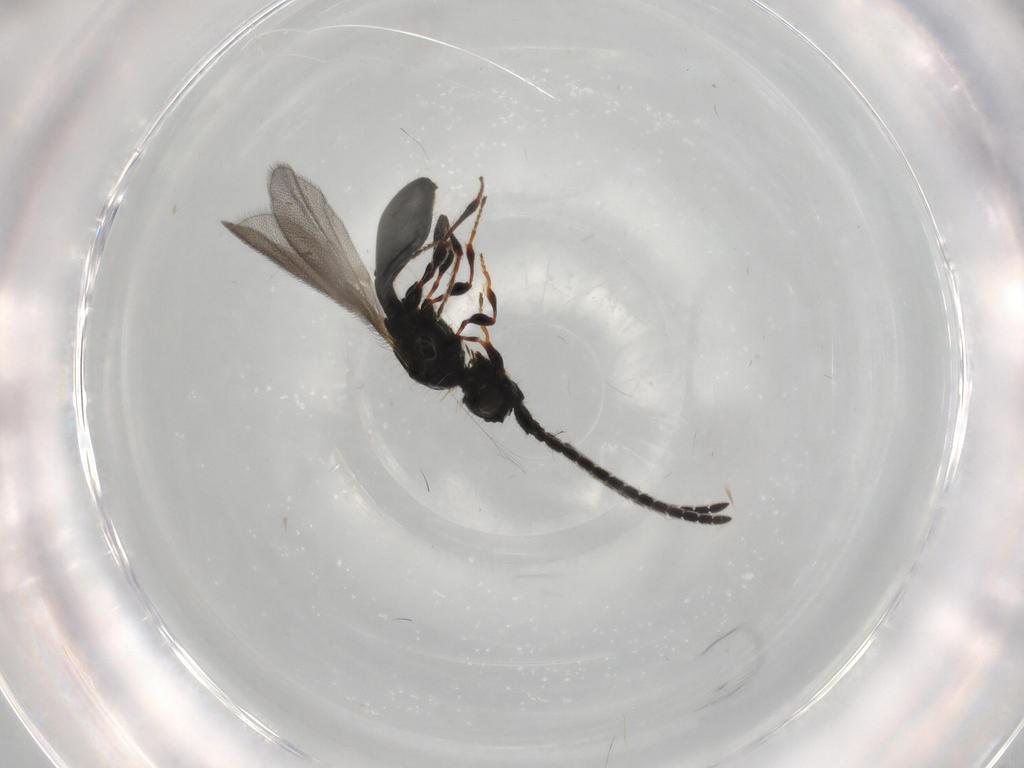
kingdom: Animalia
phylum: Arthropoda
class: Insecta
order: Hymenoptera
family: Diapriidae
